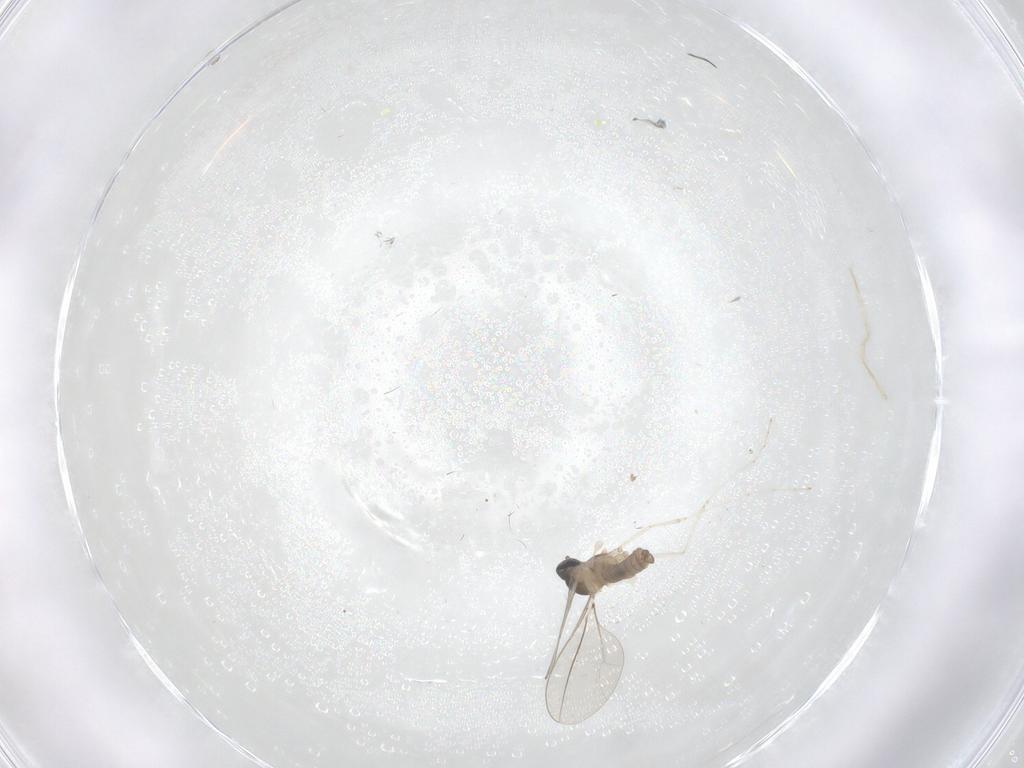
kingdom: Animalia
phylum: Arthropoda
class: Insecta
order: Diptera
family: Cecidomyiidae
